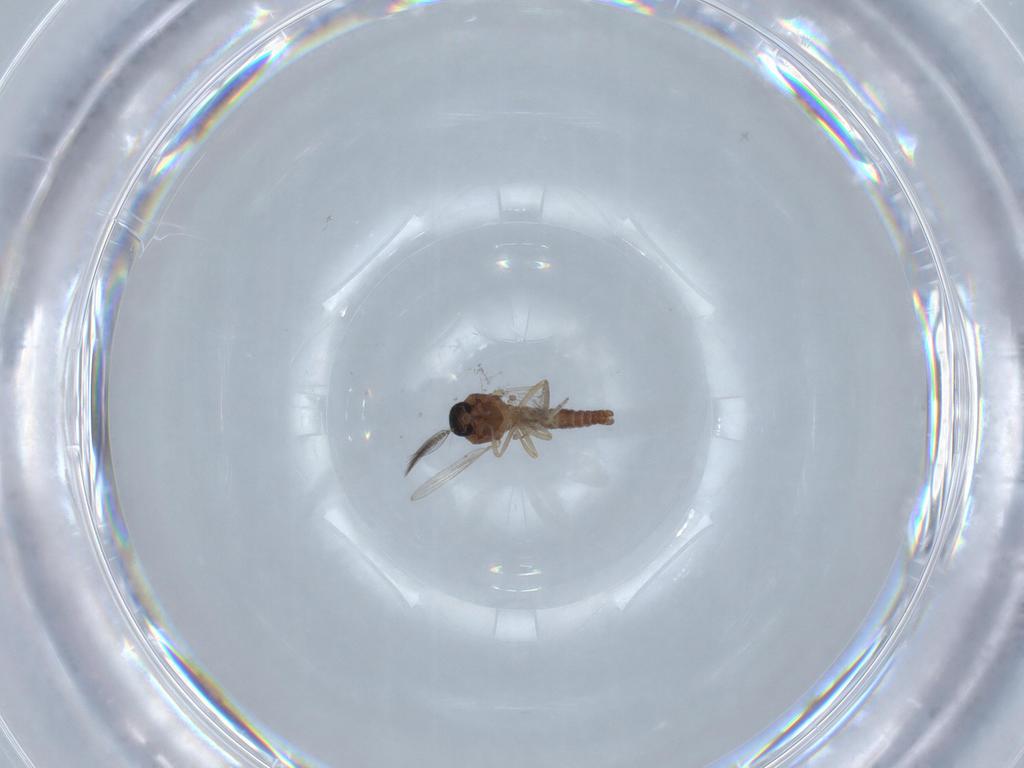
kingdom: Animalia
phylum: Arthropoda
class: Insecta
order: Diptera
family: Ceratopogonidae
